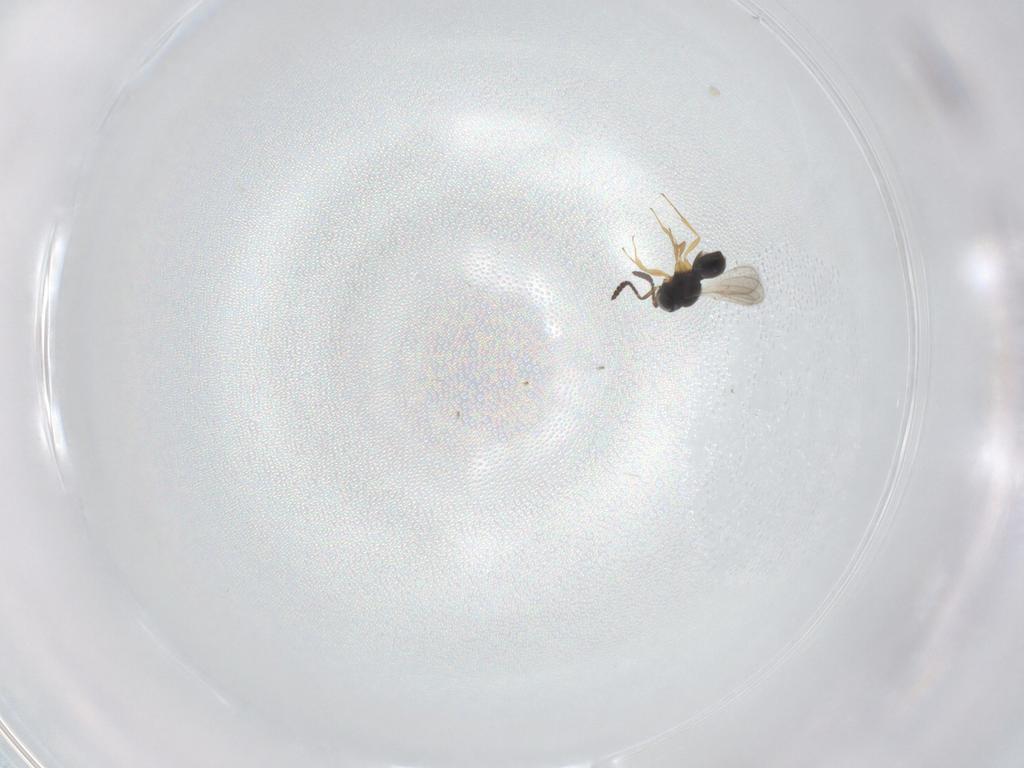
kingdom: Animalia
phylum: Arthropoda
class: Insecta
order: Hymenoptera
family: Scelionidae
